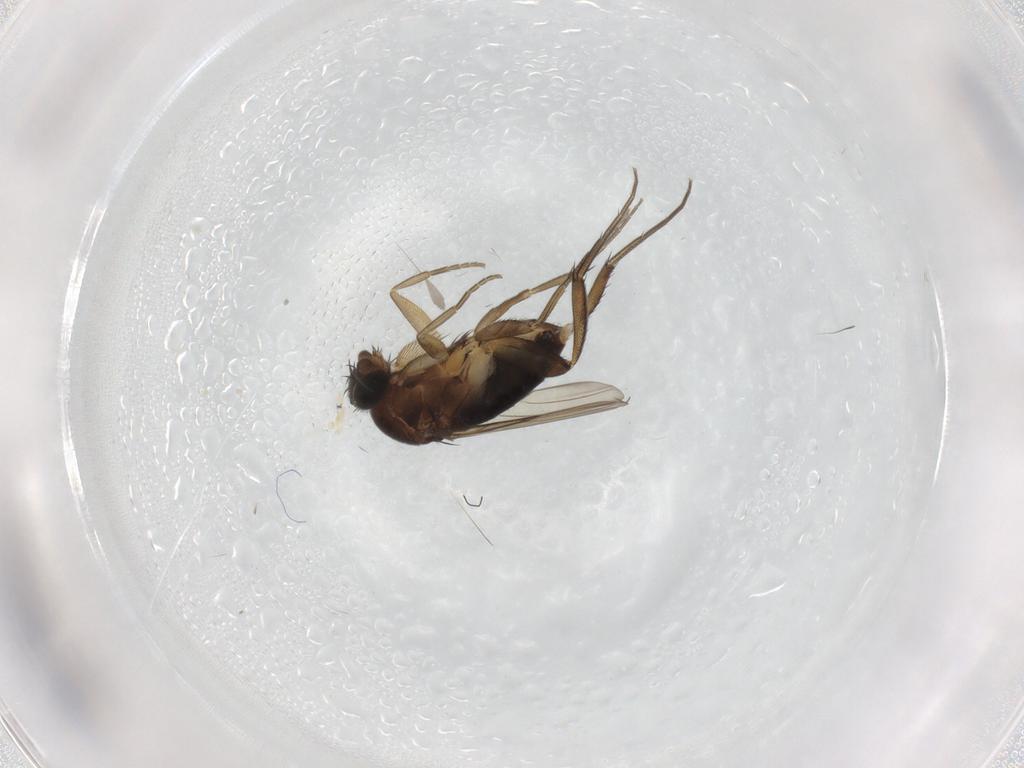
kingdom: Animalia
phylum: Arthropoda
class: Insecta
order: Diptera
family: Phoridae
